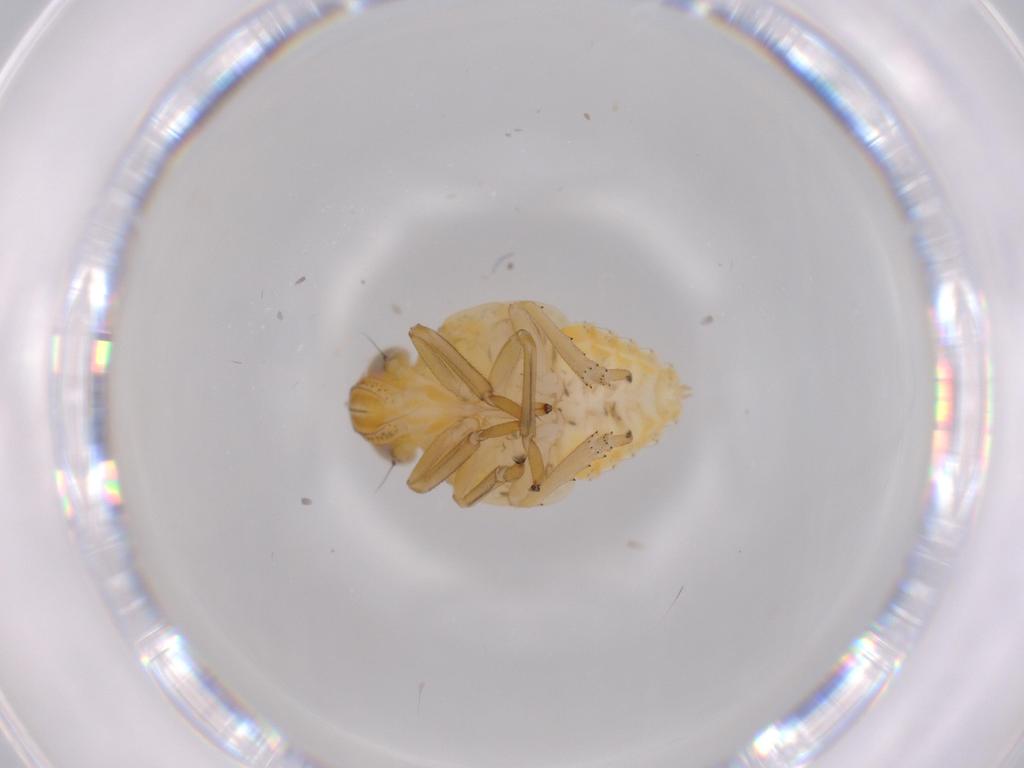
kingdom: Animalia
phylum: Arthropoda
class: Insecta
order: Hemiptera
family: Issidae
